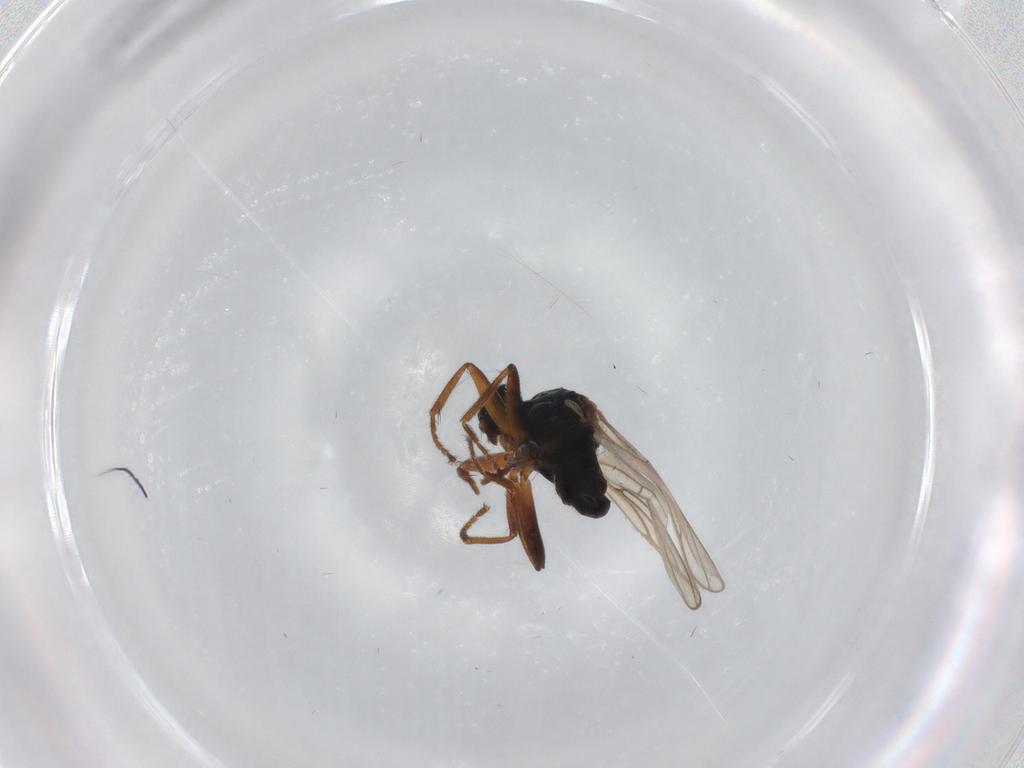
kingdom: Animalia
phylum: Arthropoda
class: Insecta
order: Diptera
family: Hybotidae
